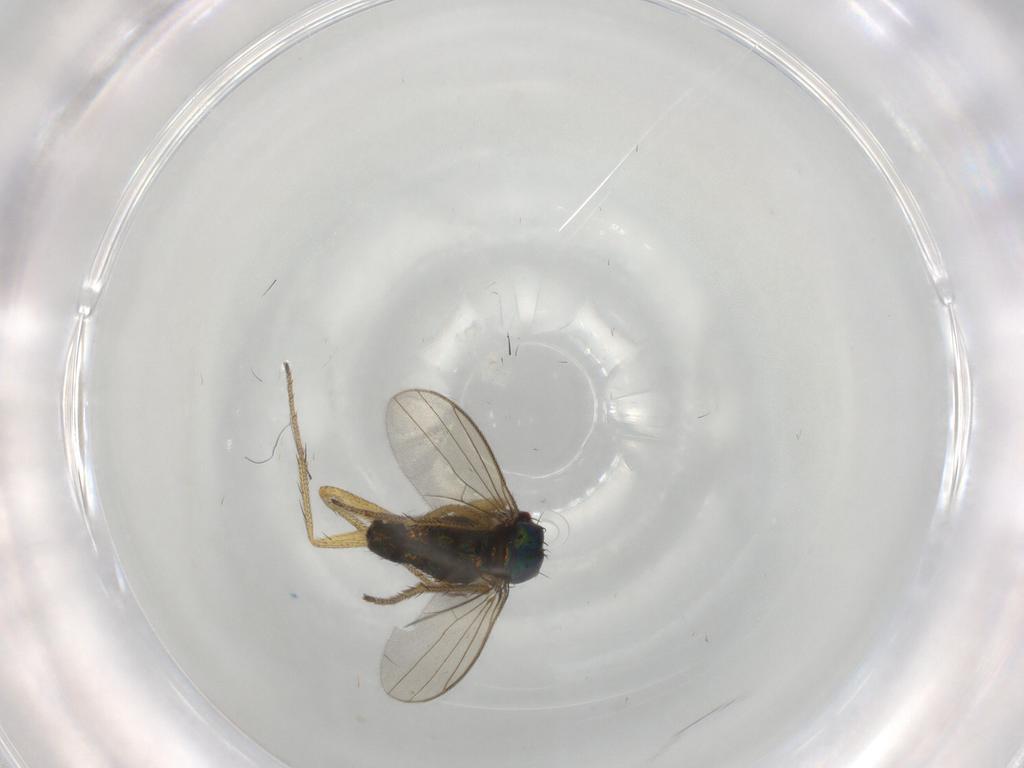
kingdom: Animalia
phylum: Arthropoda
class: Insecta
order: Diptera
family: Dolichopodidae
